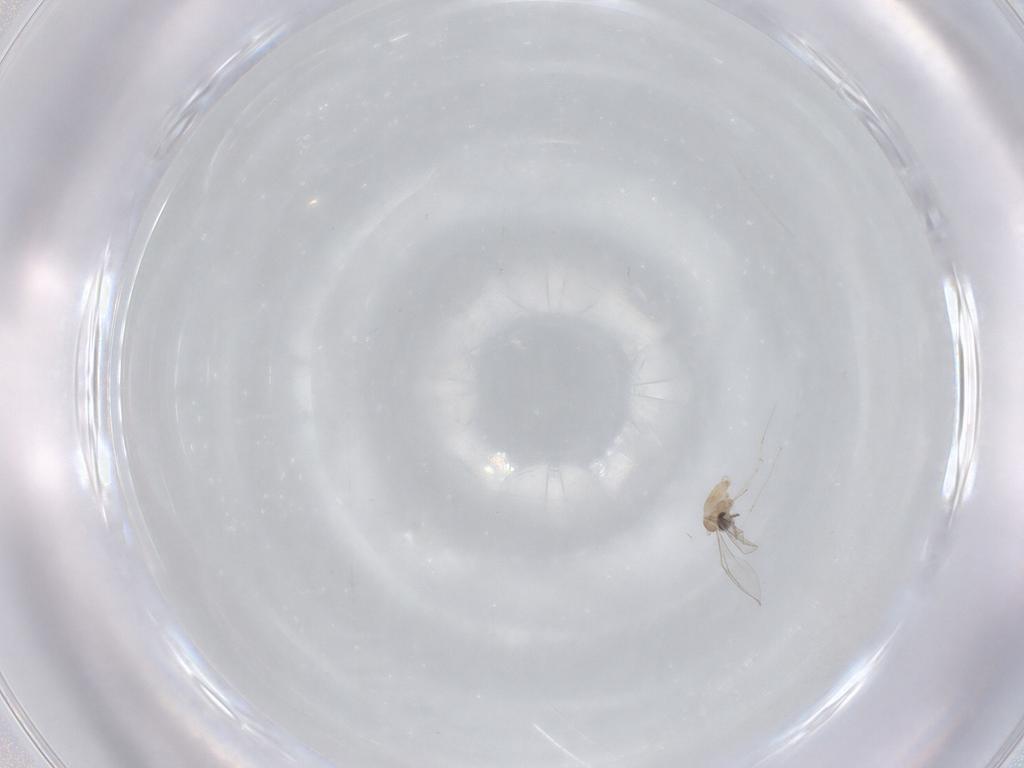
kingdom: Animalia
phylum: Arthropoda
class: Insecta
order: Diptera
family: Cecidomyiidae
